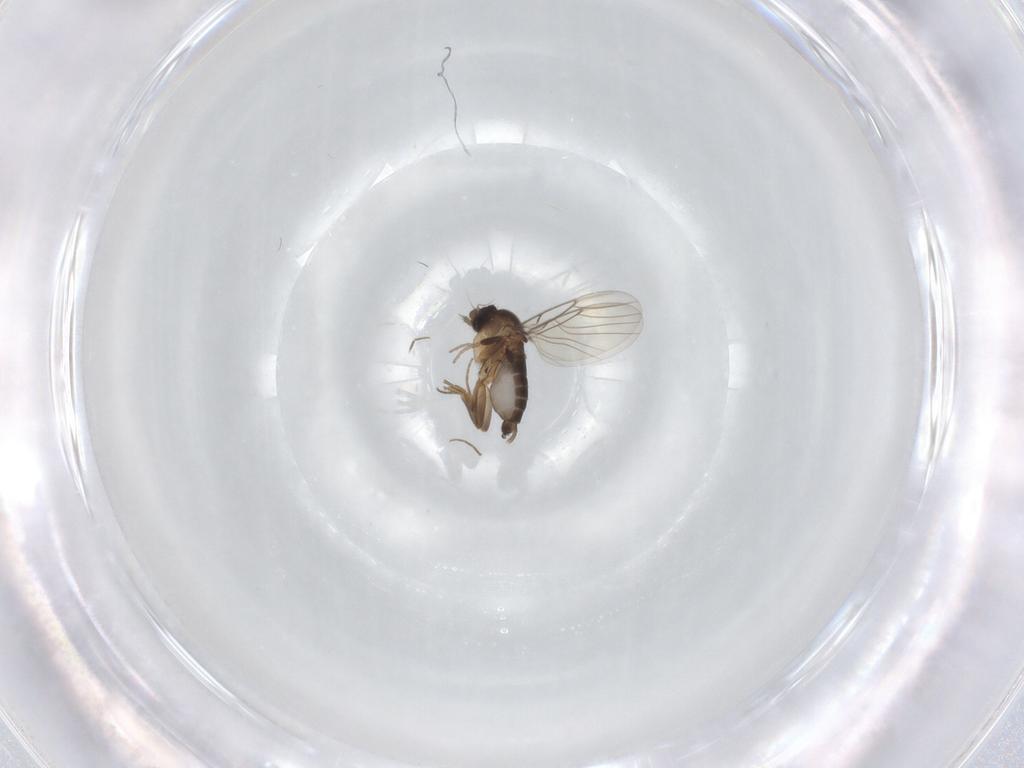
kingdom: Animalia
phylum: Arthropoda
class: Insecta
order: Diptera
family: Phoridae
